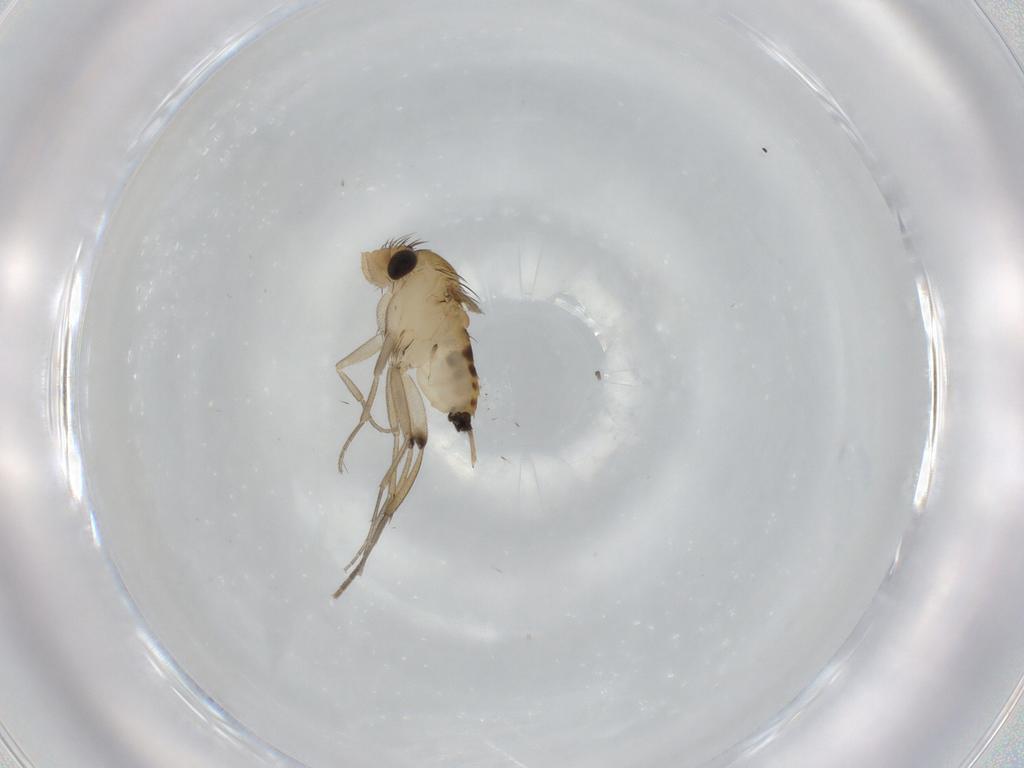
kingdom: Animalia
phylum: Arthropoda
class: Insecta
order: Diptera
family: Phoridae
